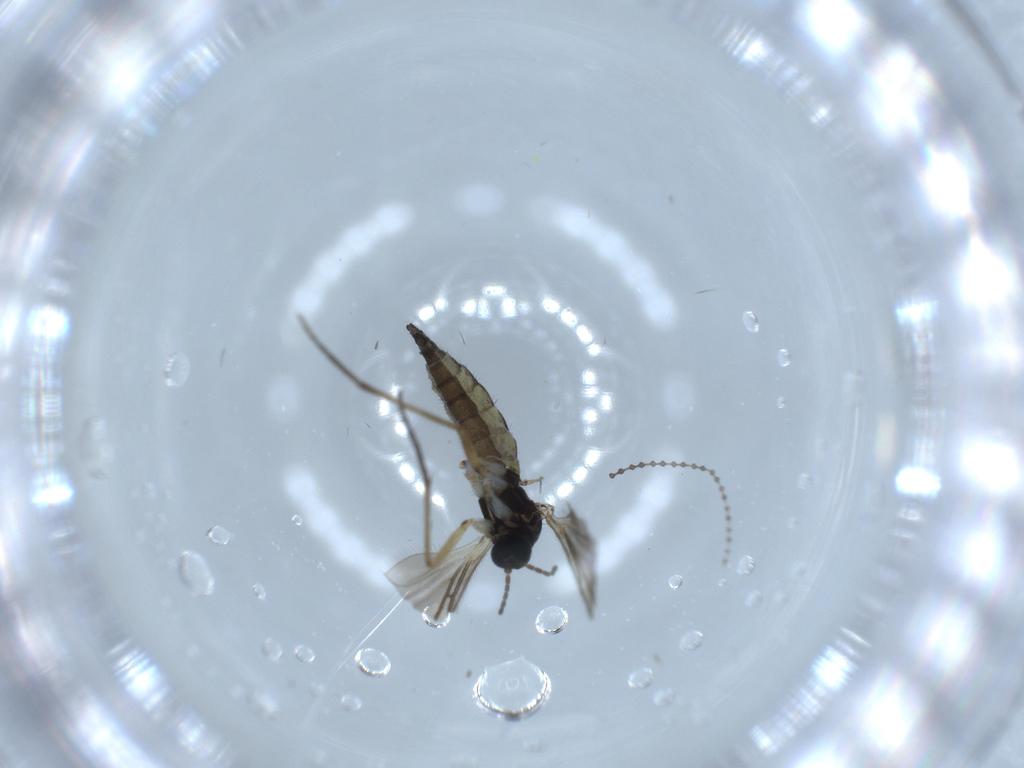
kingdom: Animalia
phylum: Arthropoda
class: Insecta
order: Diptera
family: Sciaridae
